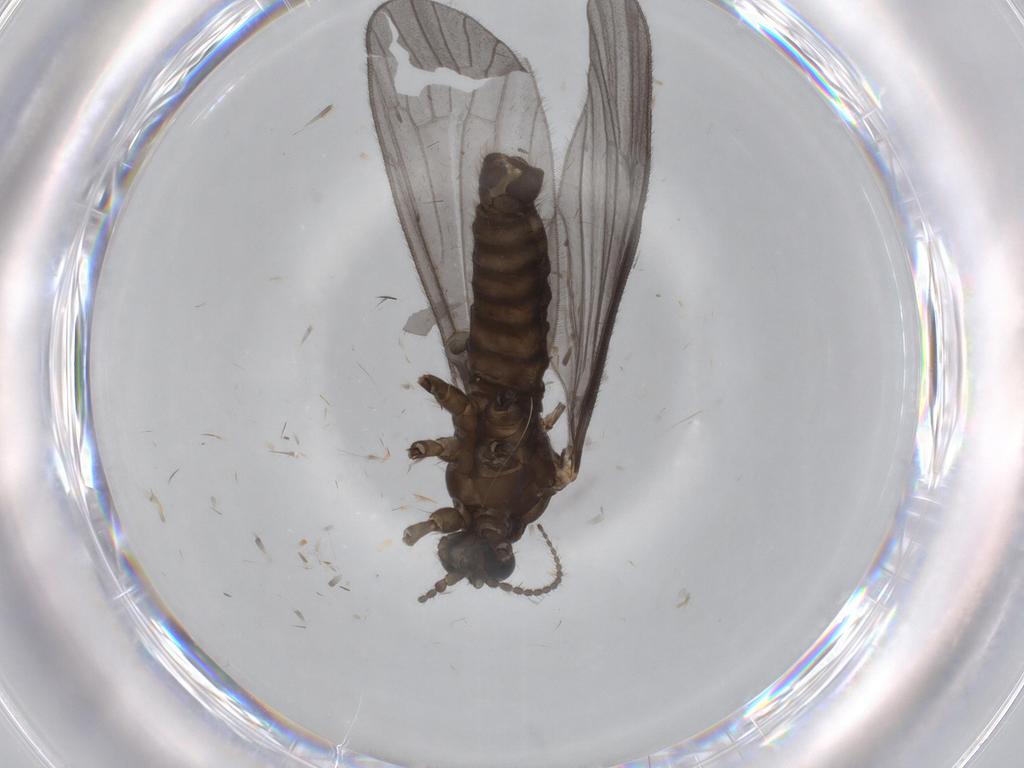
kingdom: Animalia
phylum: Arthropoda
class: Insecta
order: Diptera
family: Limoniidae
